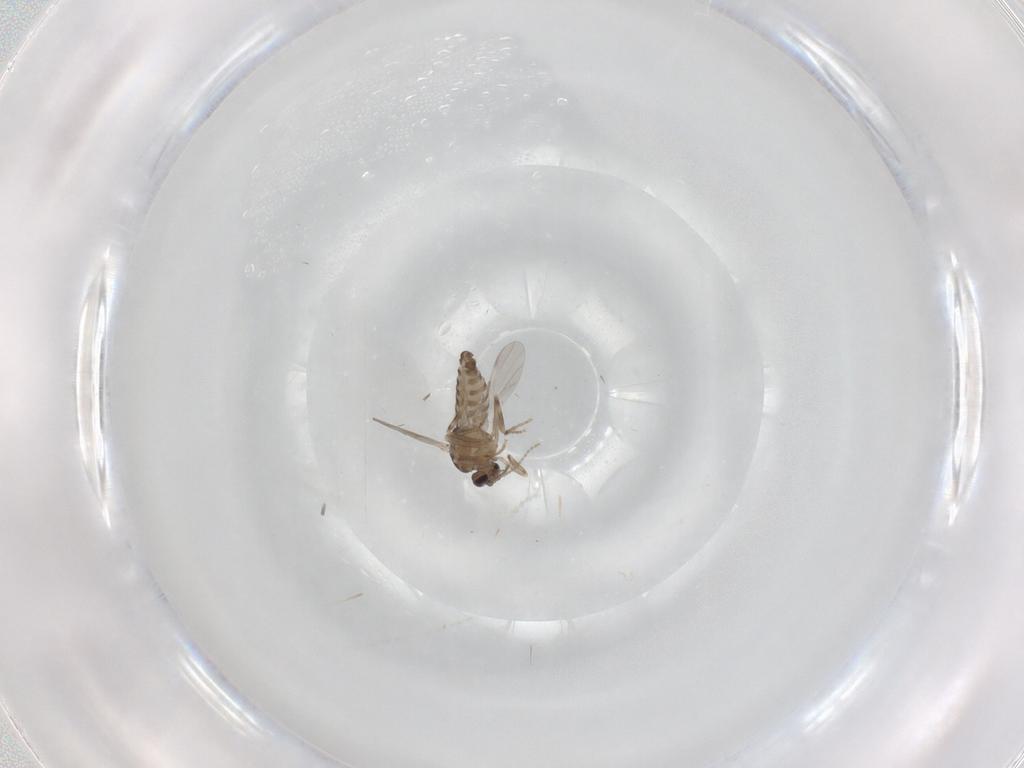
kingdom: Animalia
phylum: Arthropoda
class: Insecta
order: Diptera
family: Ceratopogonidae
